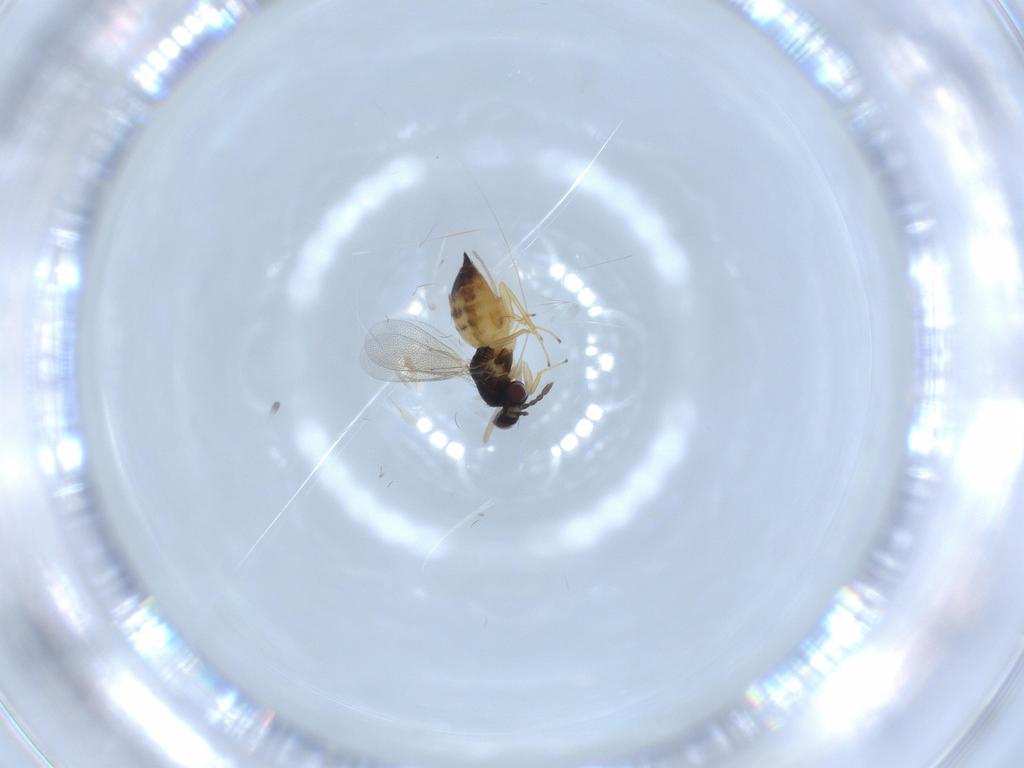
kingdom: Animalia
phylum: Arthropoda
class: Insecta
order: Hymenoptera
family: Eulophidae
